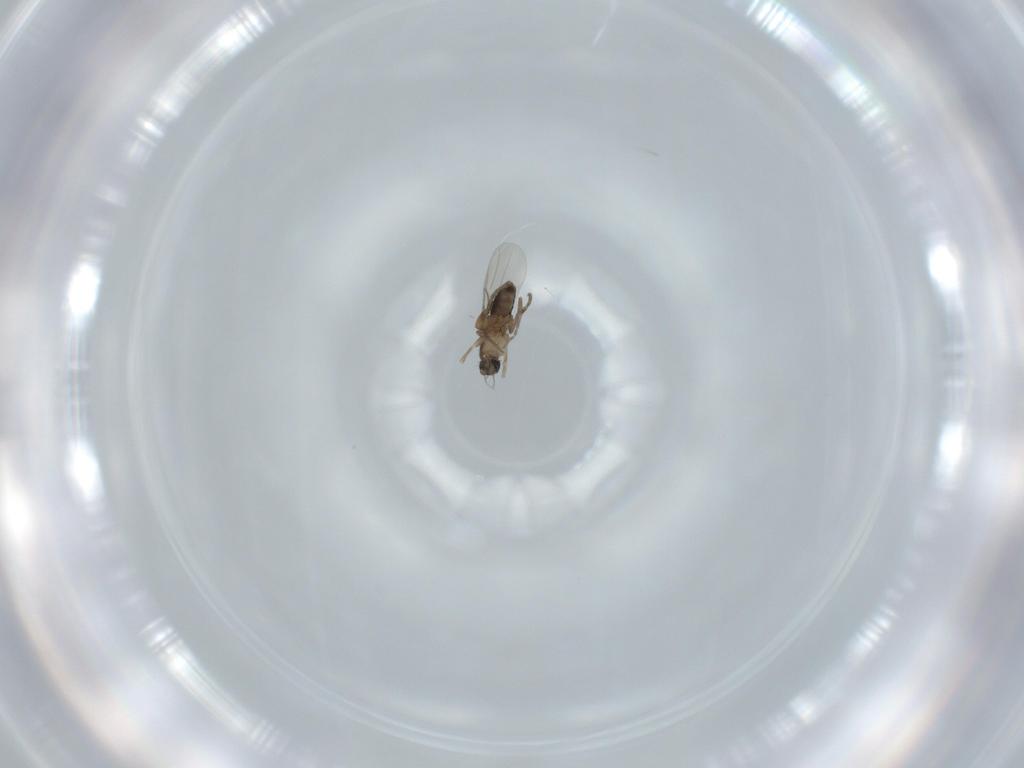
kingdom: Animalia
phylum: Arthropoda
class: Insecta
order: Diptera
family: Phoridae
